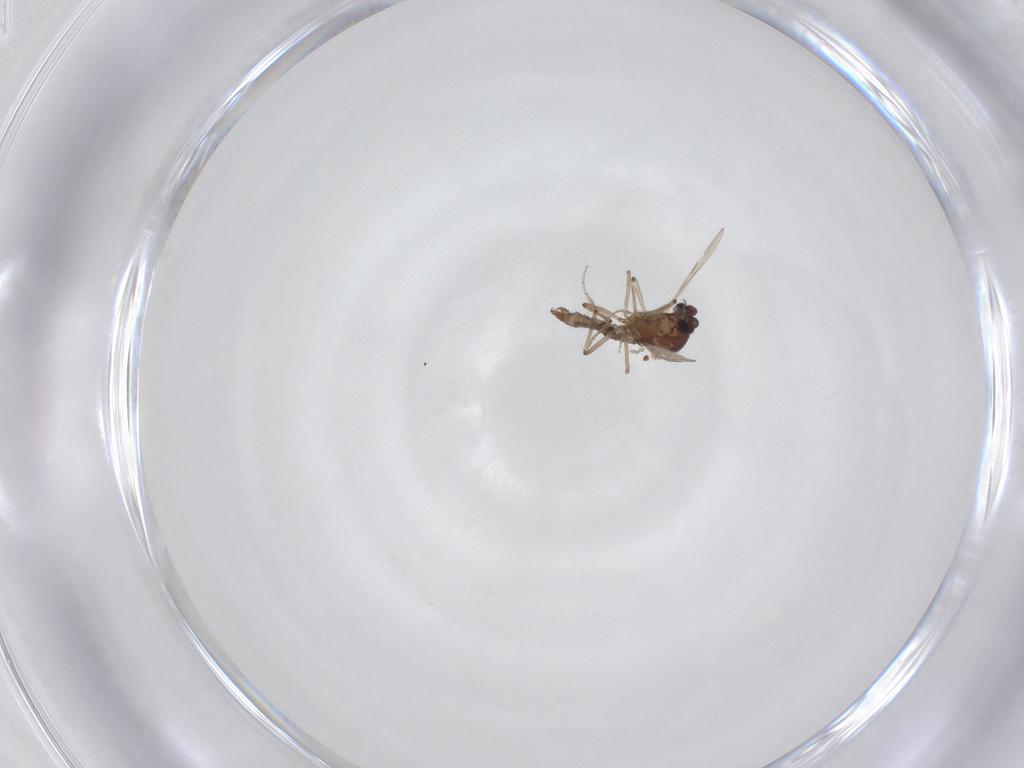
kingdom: Animalia
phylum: Arthropoda
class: Insecta
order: Diptera
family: Ceratopogonidae
